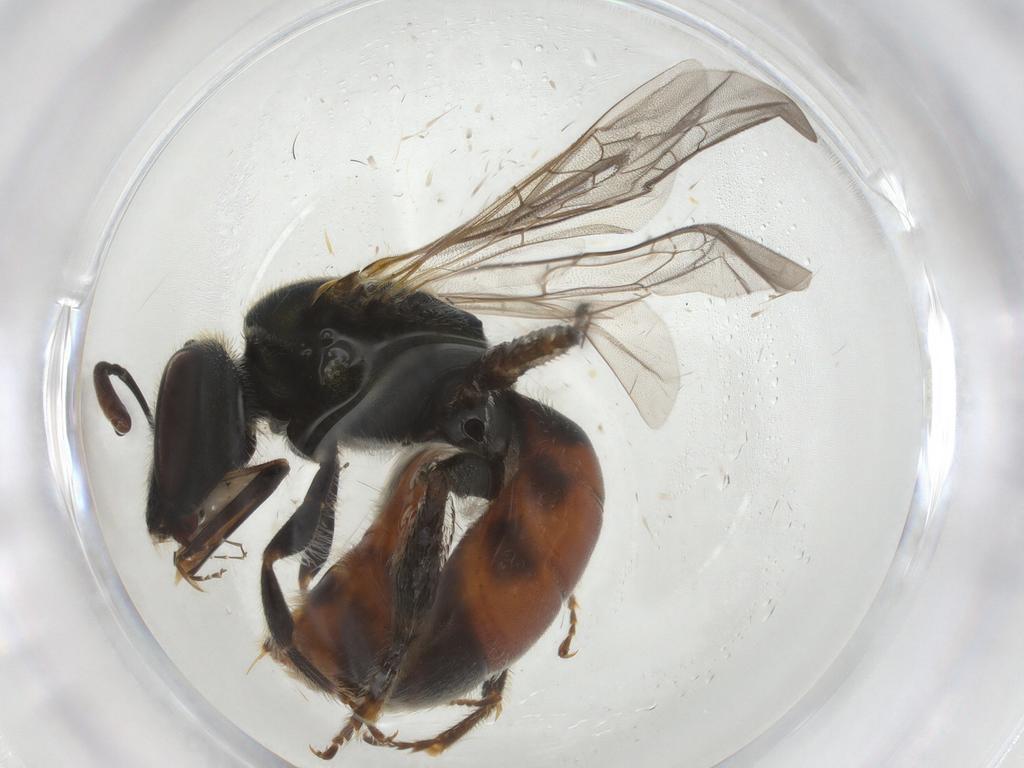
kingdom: Animalia
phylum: Arthropoda
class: Insecta
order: Hymenoptera
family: Halictidae
